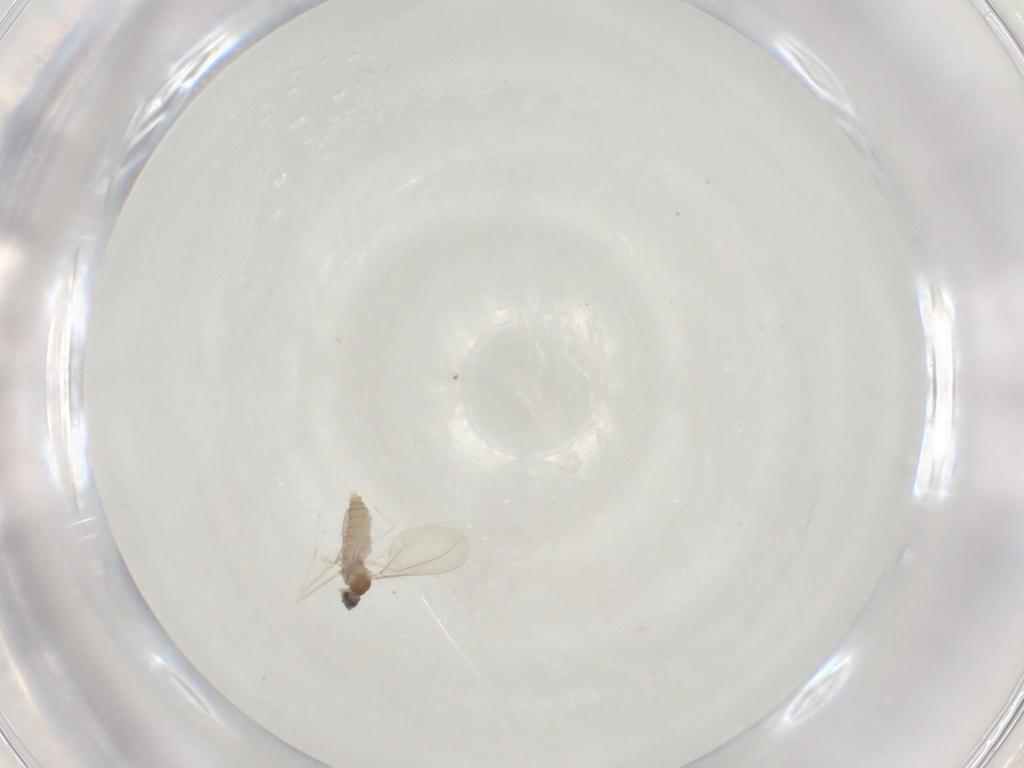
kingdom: Animalia
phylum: Arthropoda
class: Insecta
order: Diptera
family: Cecidomyiidae
